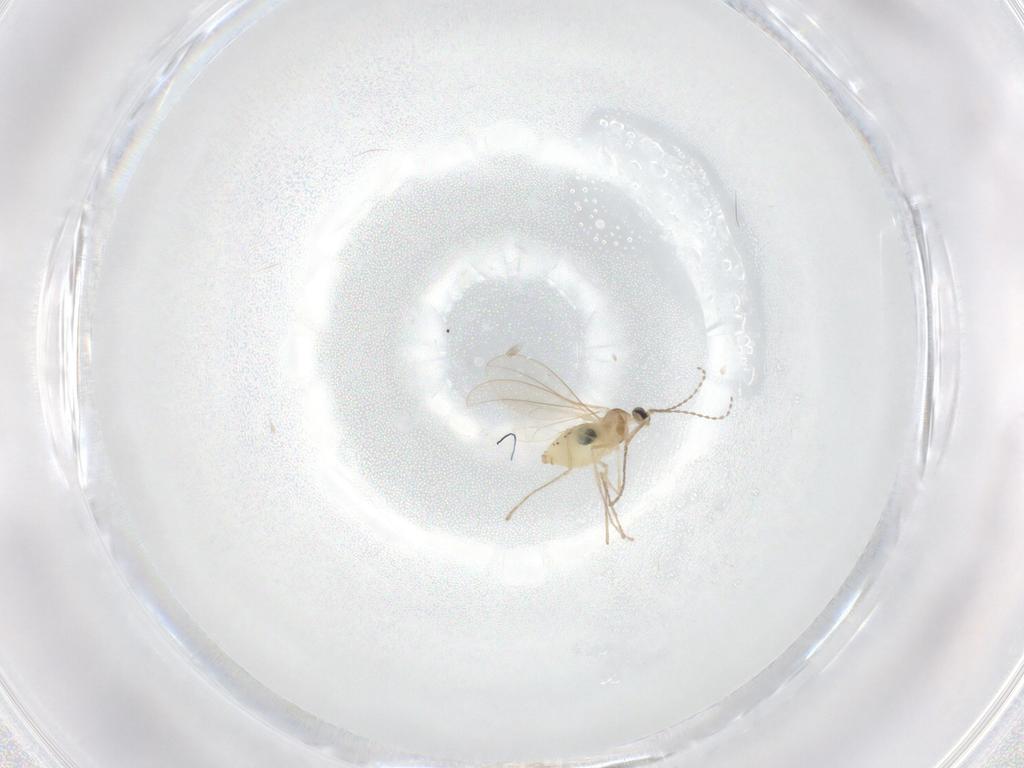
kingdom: Animalia
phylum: Arthropoda
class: Insecta
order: Diptera
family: Cecidomyiidae
